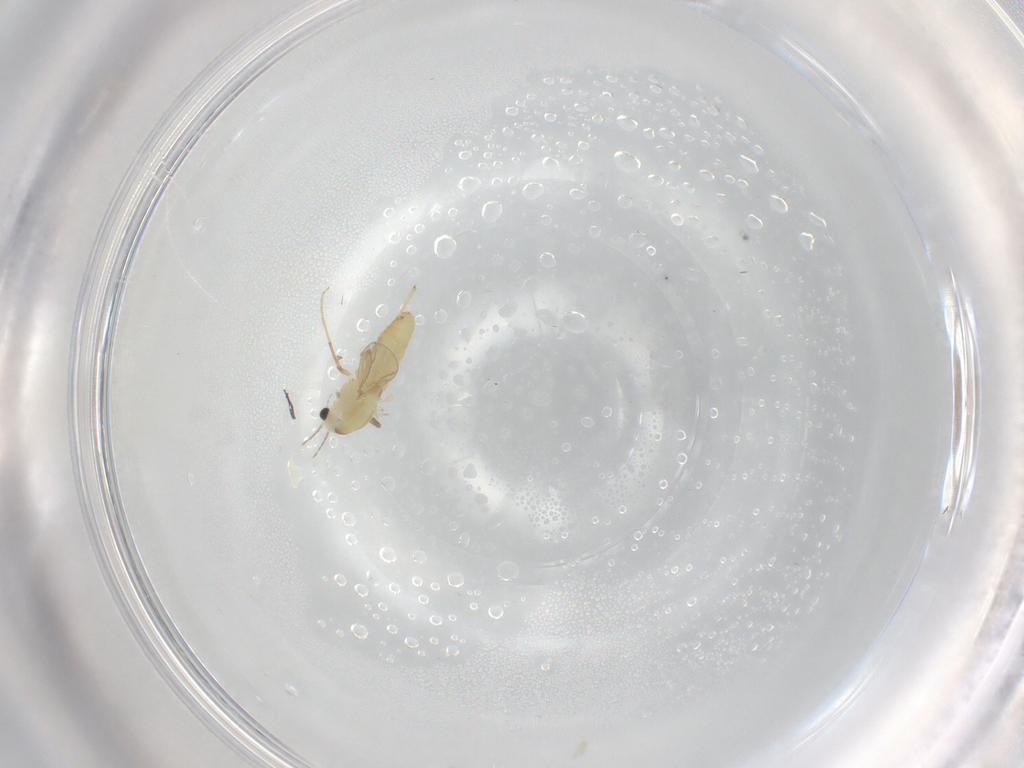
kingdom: Animalia
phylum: Arthropoda
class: Insecta
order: Diptera
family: Chironomidae
